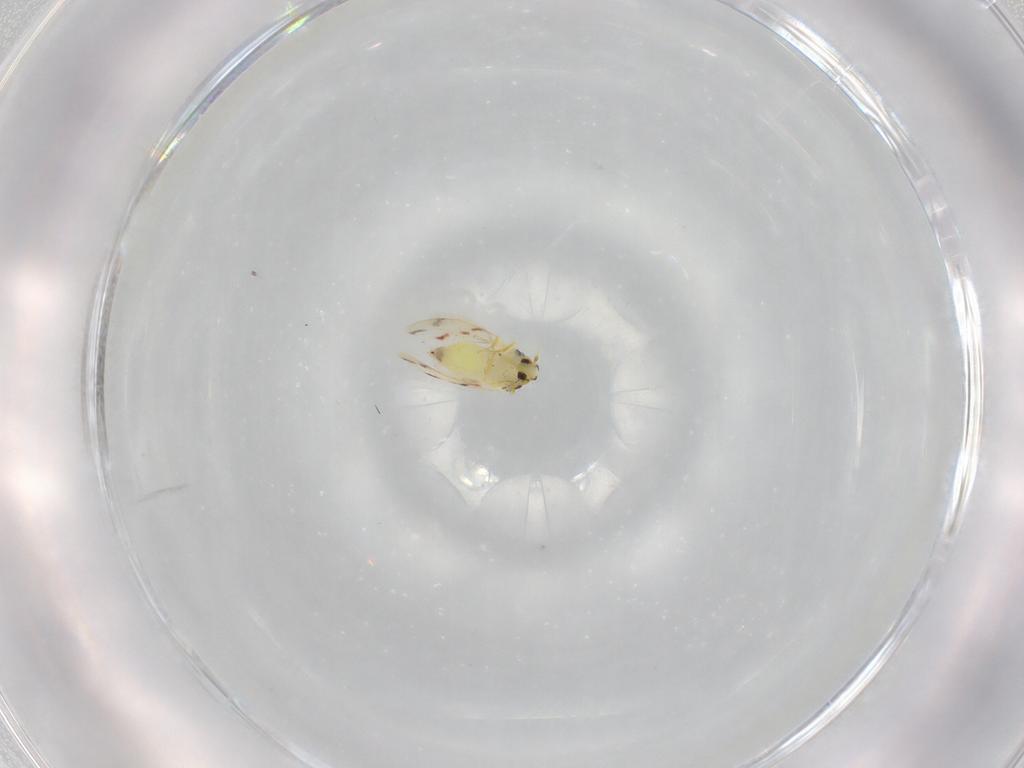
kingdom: Animalia
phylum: Arthropoda
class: Insecta
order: Hemiptera
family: Aleyrodidae
